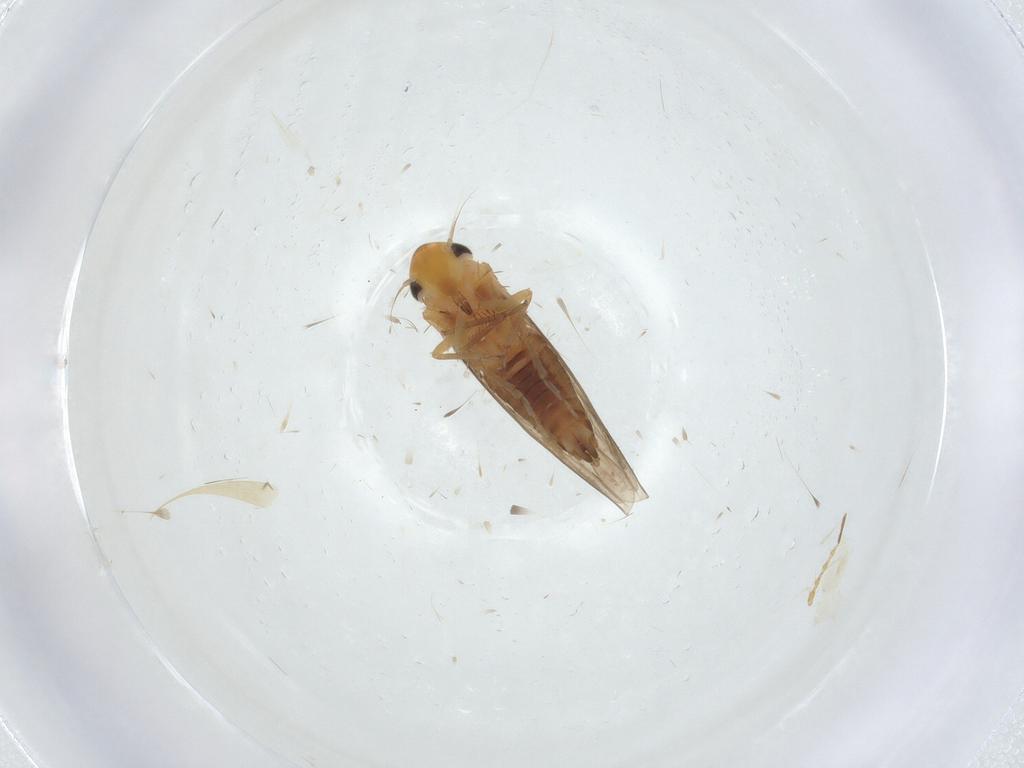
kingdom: Animalia
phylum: Arthropoda
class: Insecta
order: Hemiptera
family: Cicadellidae
